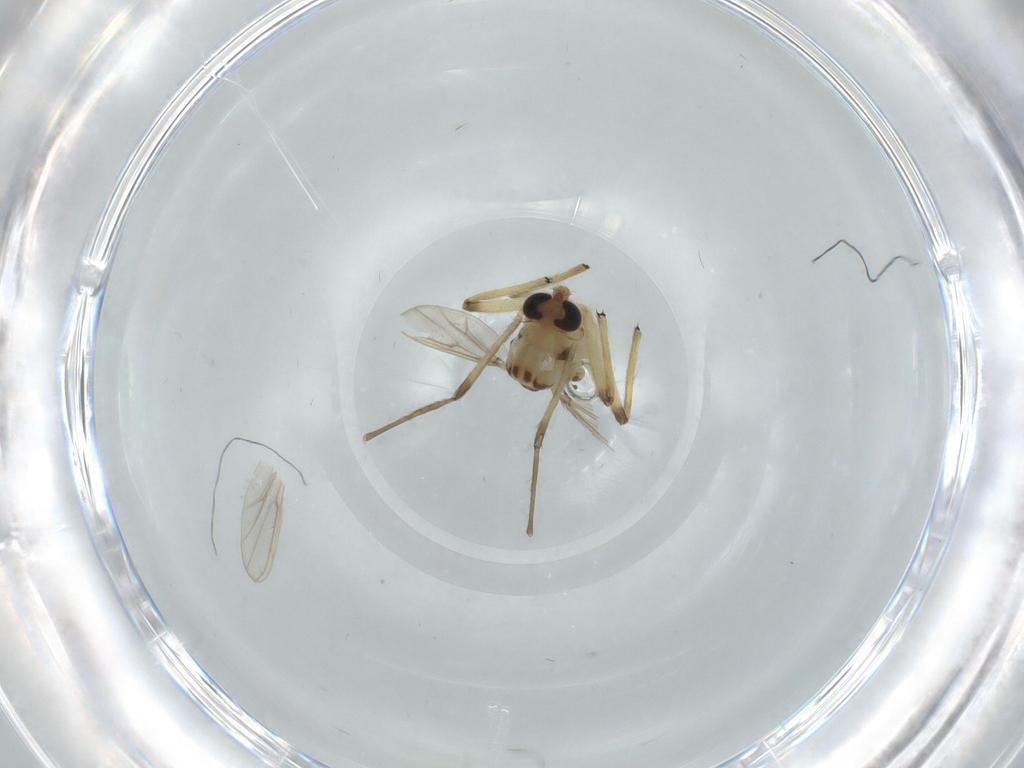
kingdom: Animalia
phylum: Arthropoda
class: Insecta
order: Diptera
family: Chironomidae
